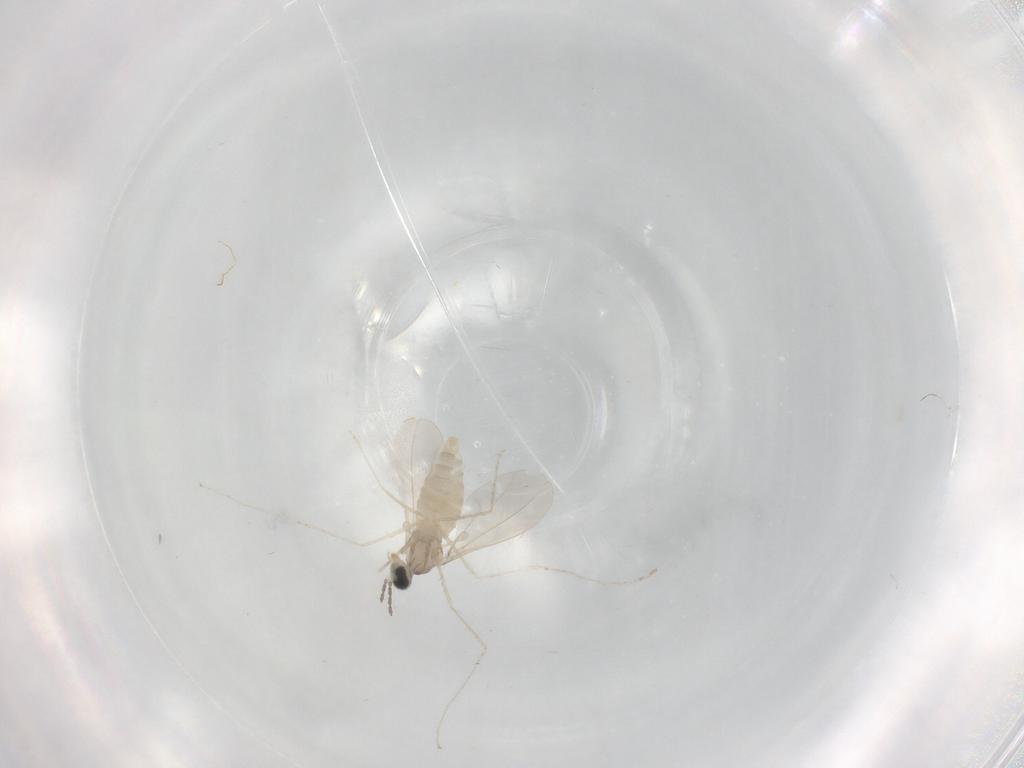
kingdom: Animalia
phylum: Arthropoda
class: Insecta
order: Diptera
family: Cecidomyiidae
